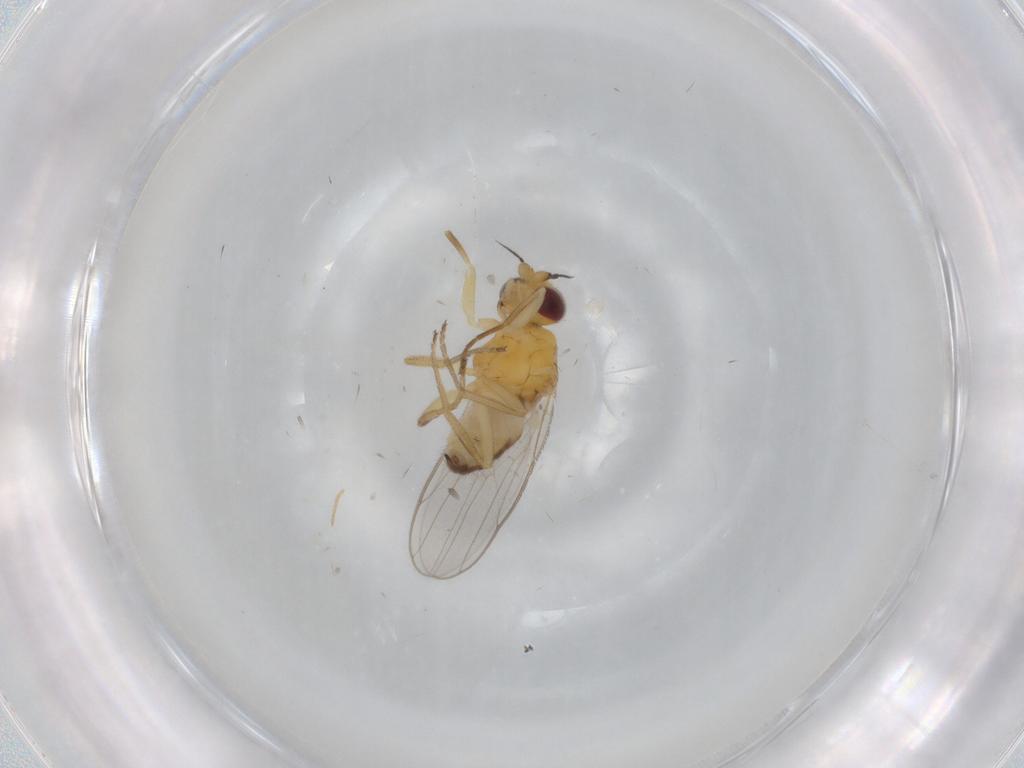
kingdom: Animalia
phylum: Arthropoda
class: Insecta
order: Diptera
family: Chloropidae
